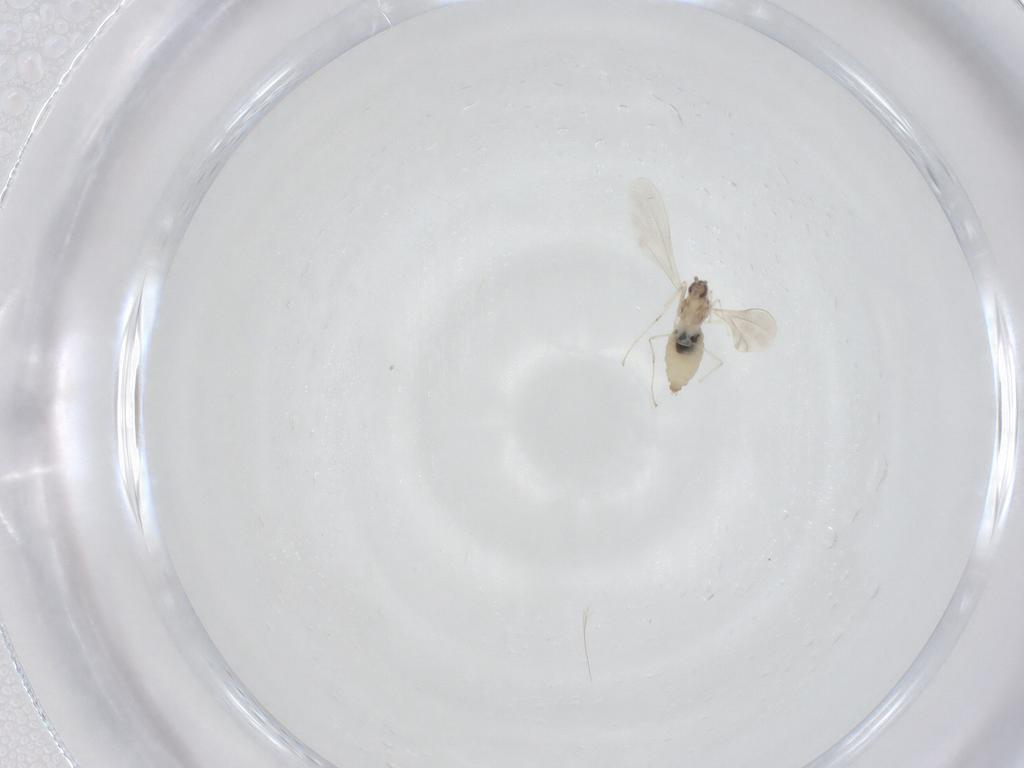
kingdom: Animalia
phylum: Arthropoda
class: Insecta
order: Diptera
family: Cecidomyiidae
